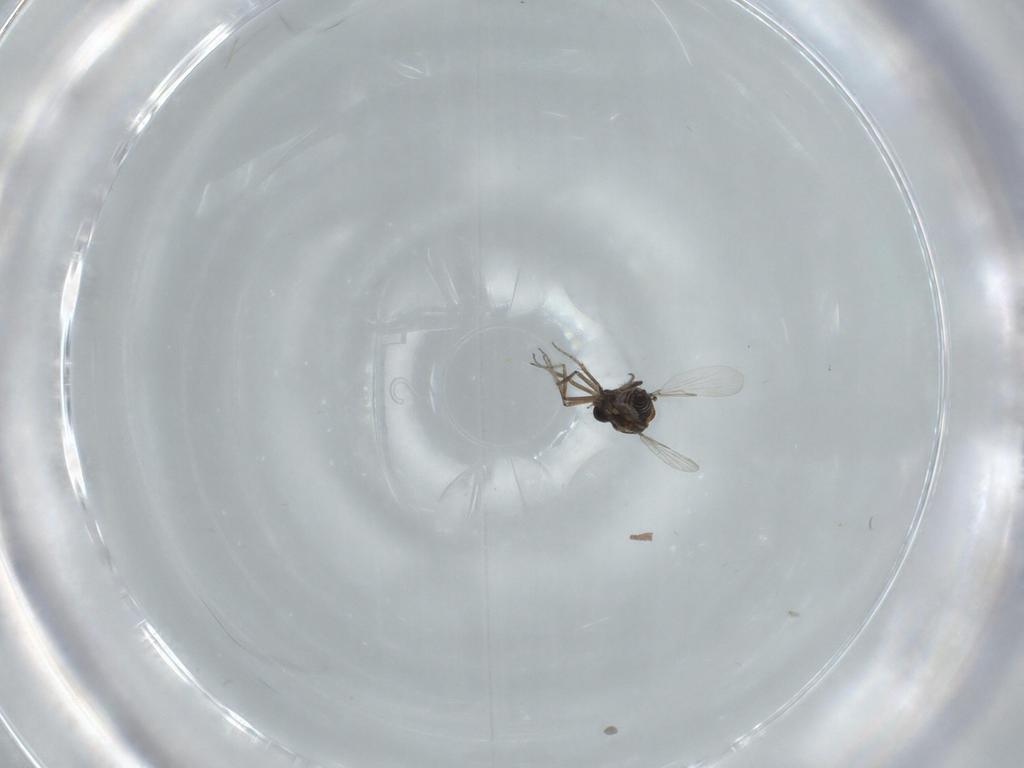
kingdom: Animalia
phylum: Arthropoda
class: Insecta
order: Diptera
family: Ceratopogonidae
